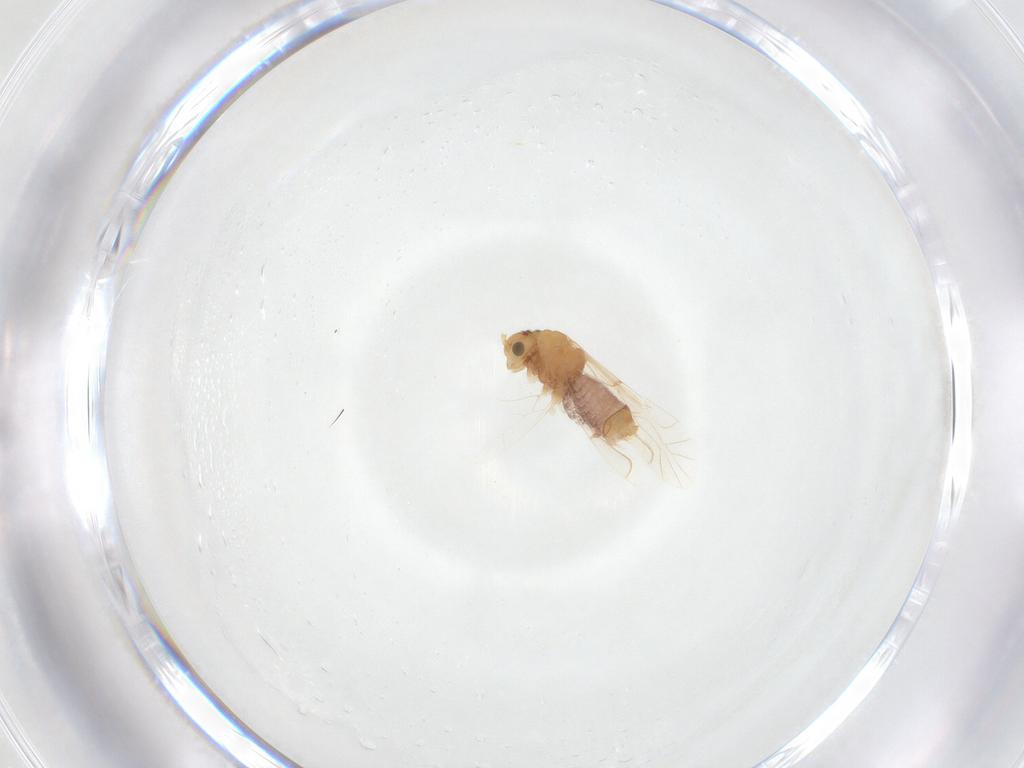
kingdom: Animalia
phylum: Arthropoda
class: Insecta
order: Psocodea
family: Lachesillidae
